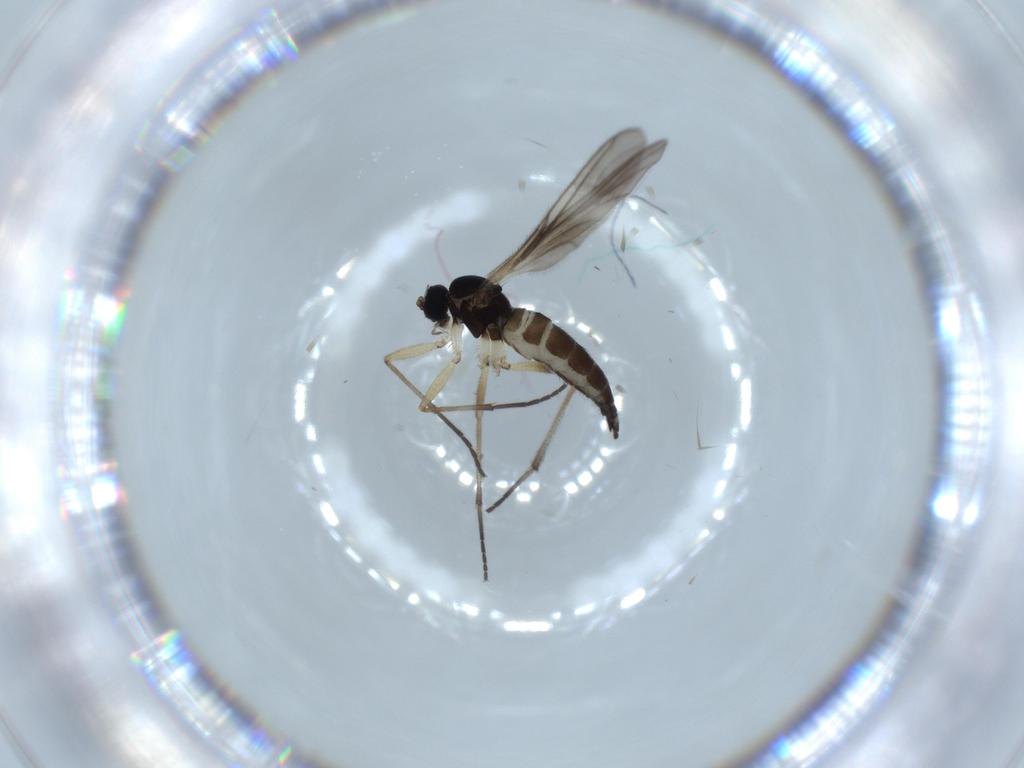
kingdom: Animalia
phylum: Arthropoda
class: Insecta
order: Diptera
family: Sciaridae
